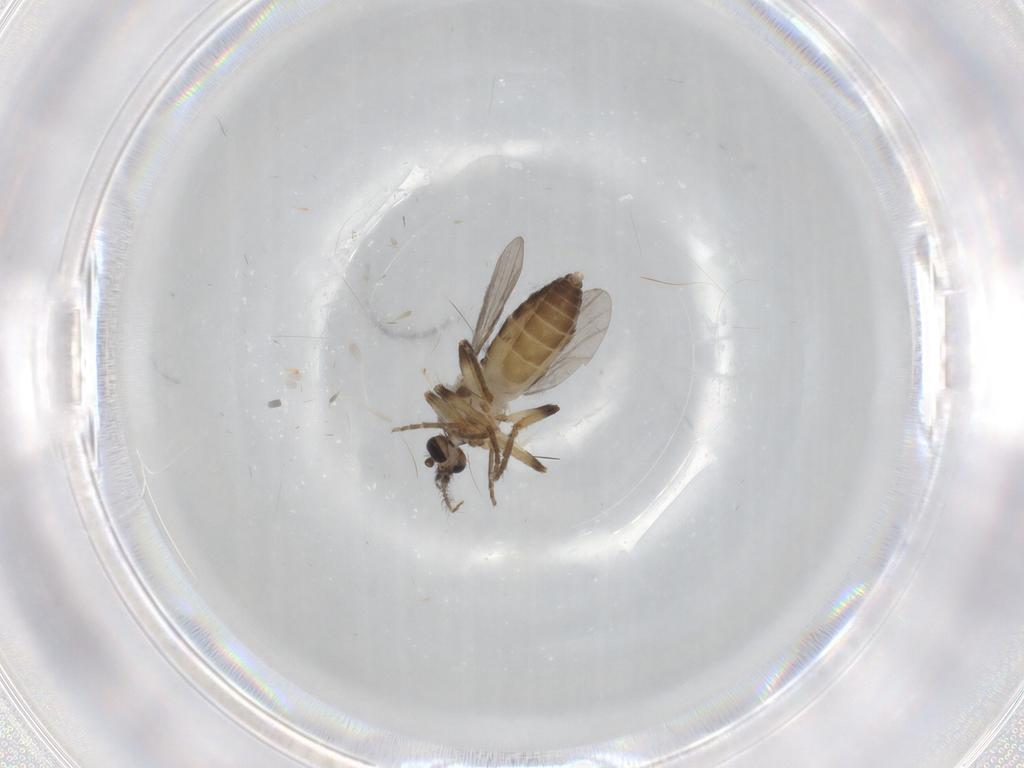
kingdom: Animalia
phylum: Arthropoda
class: Insecta
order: Diptera
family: Ceratopogonidae
